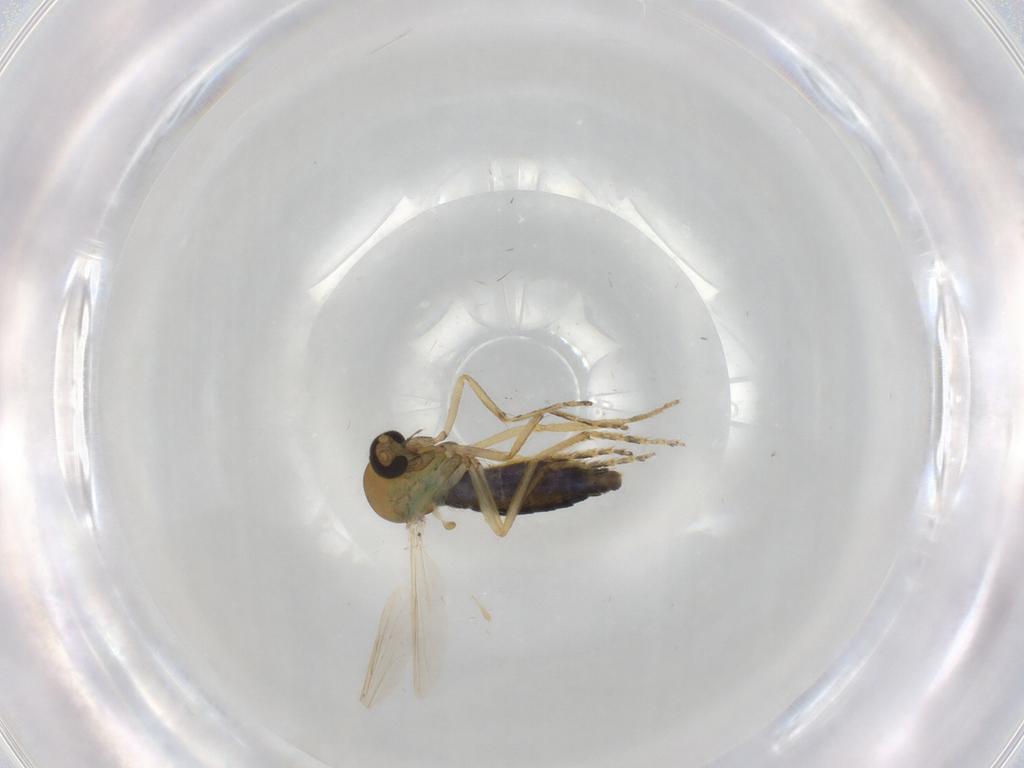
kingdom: Animalia
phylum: Arthropoda
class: Insecta
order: Diptera
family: Ceratopogonidae
